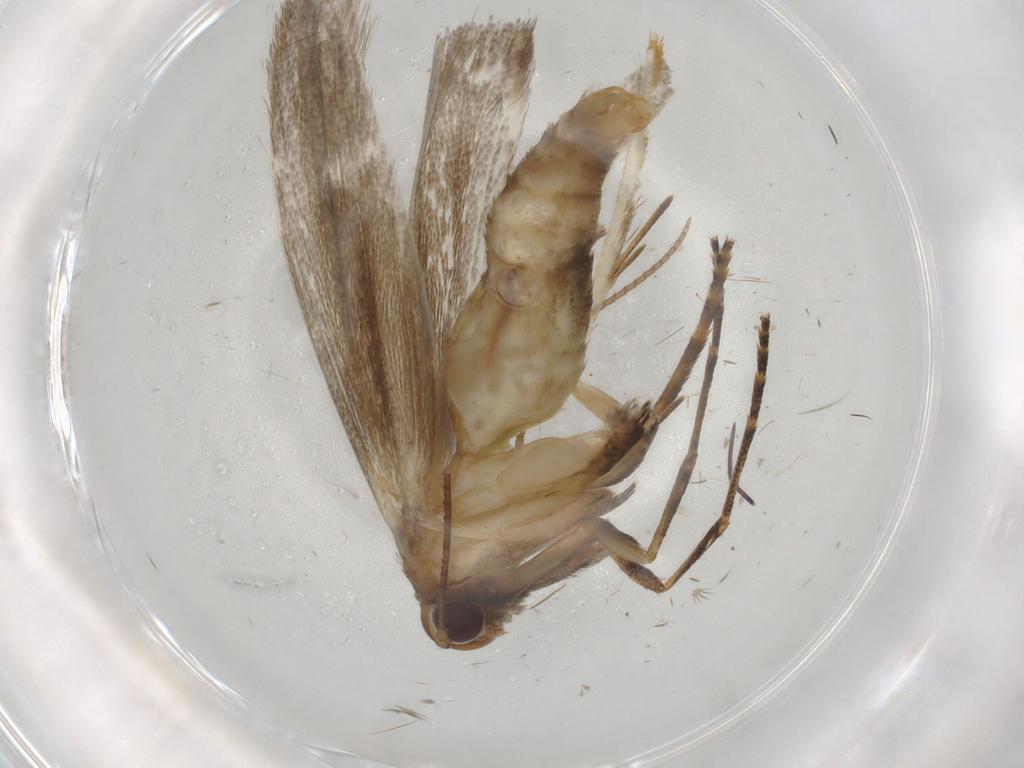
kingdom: Animalia
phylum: Arthropoda
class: Insecta
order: Lepidoptera
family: Epermeniidae
